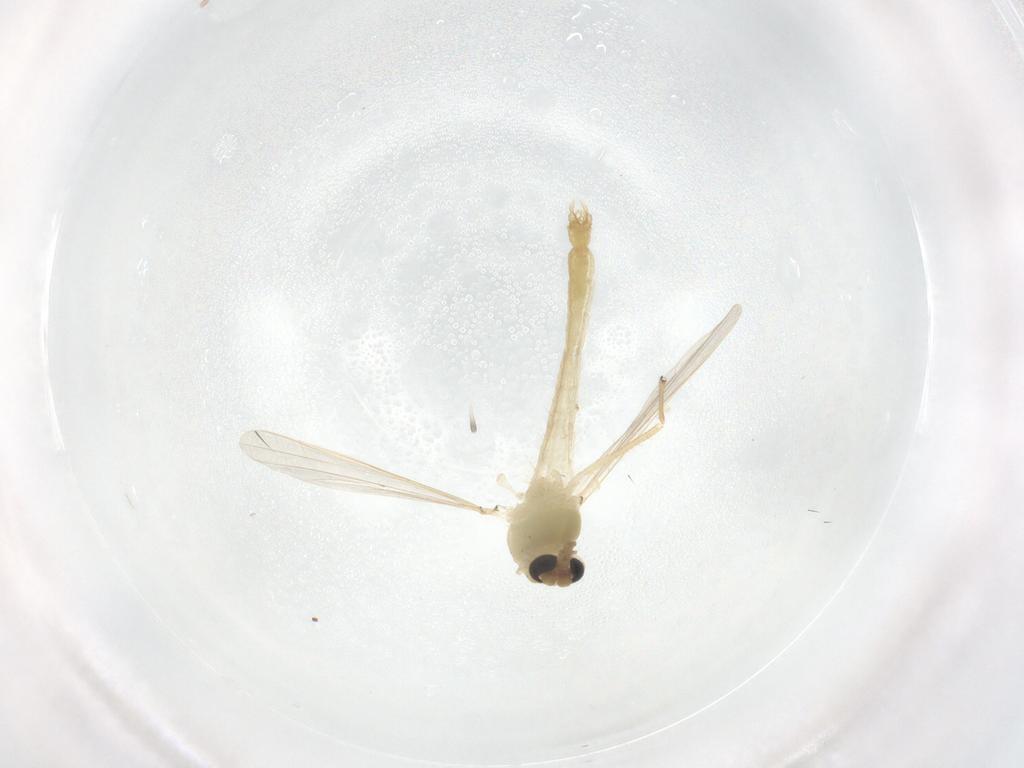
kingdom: Animalia
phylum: Arthropoda
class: Insecta
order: Diptera
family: Chironomidae
